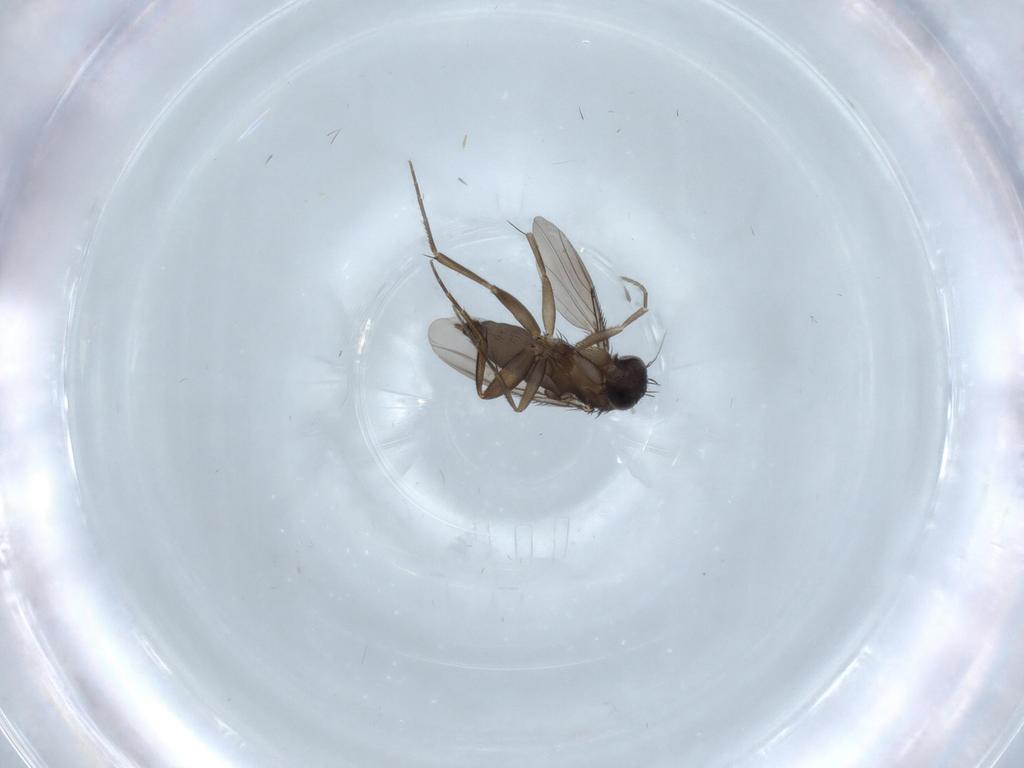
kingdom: Animalia
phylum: Arthropoda
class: Insecta
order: Diptera
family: Phoridae
